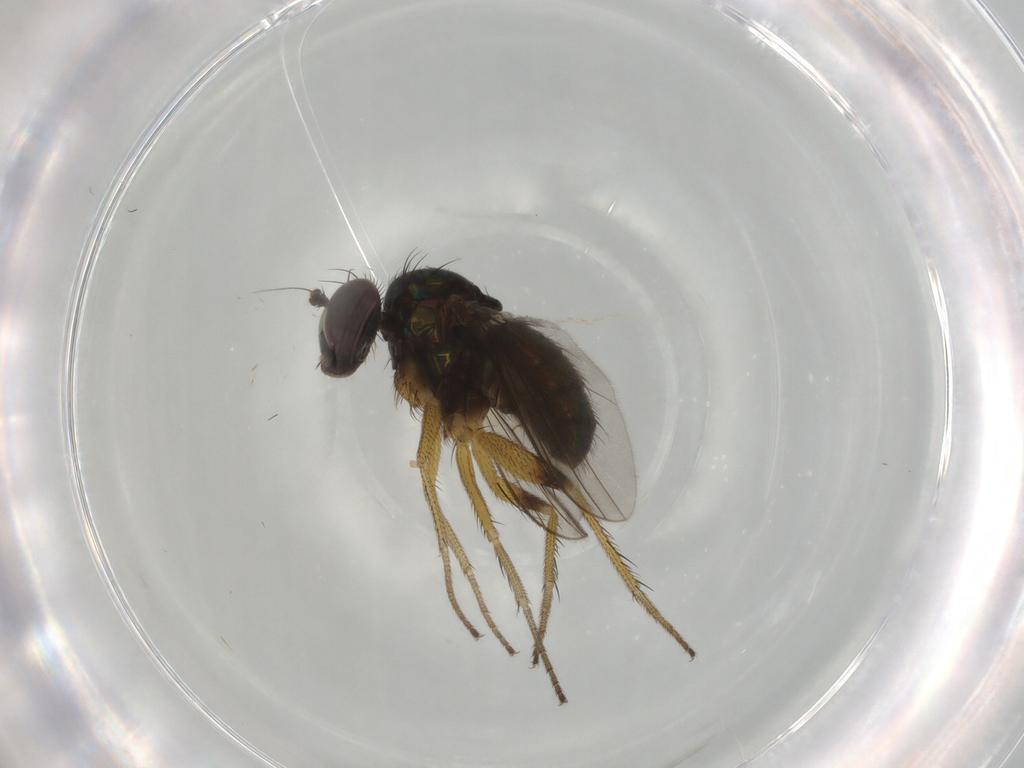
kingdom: Animalia
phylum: Arthropoda
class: Insecta
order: Diptera
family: Dolichopodidae
